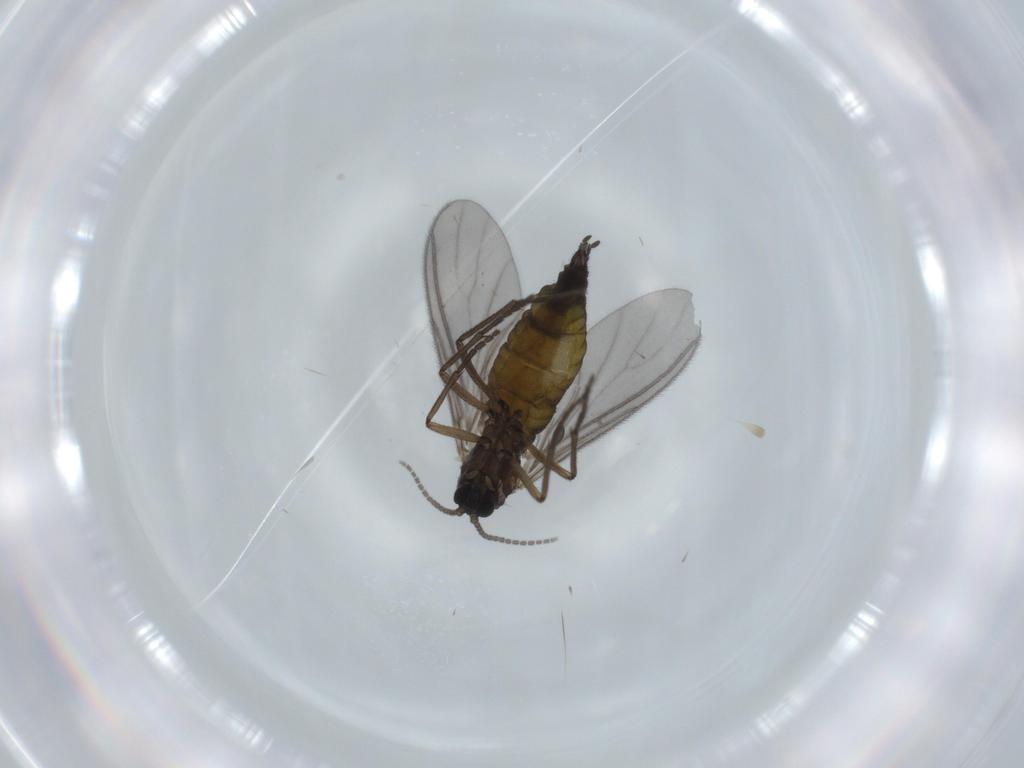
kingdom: Animalia
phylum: Arthropoda
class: Insecta
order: Diptera
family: Sciaridae
